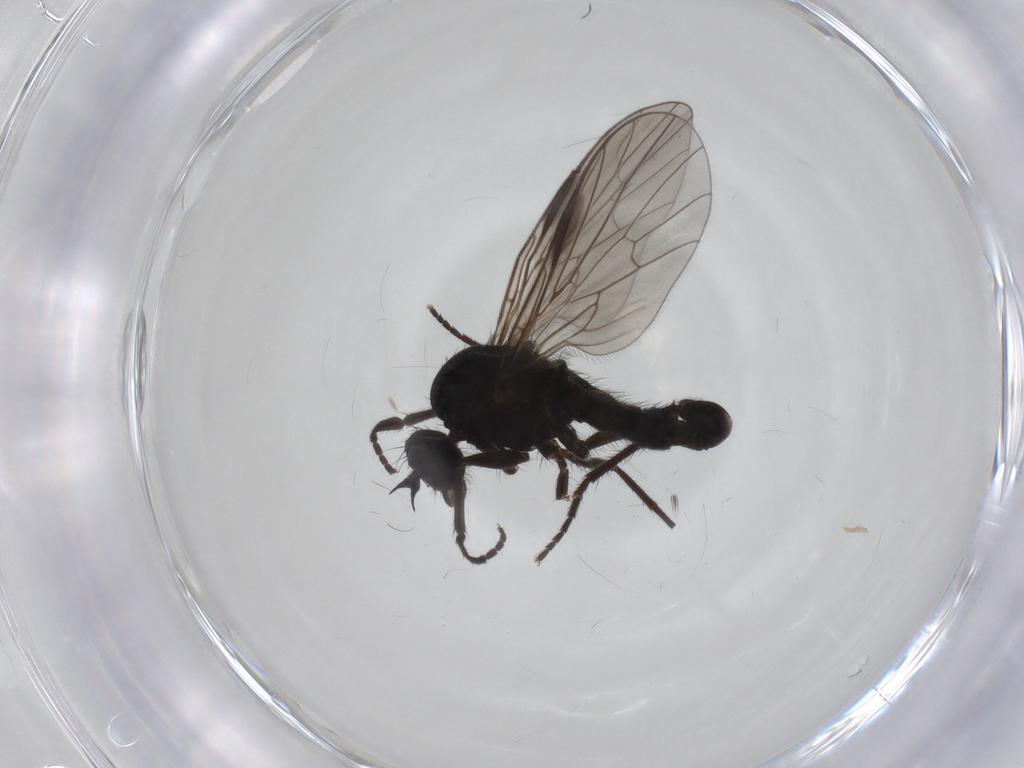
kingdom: Animalia
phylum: Arthropoda
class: Insecta
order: Diptera
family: Empididae
